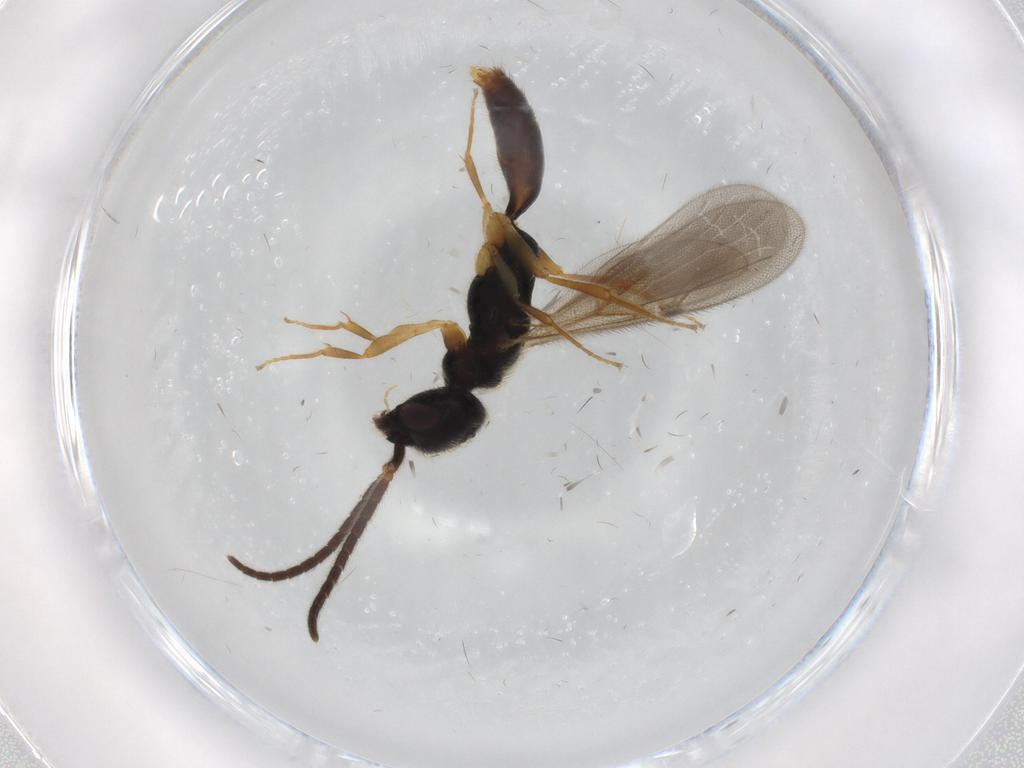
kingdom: Animalia
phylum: Arthropoda
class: Insecta
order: Hymenoptera
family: Bethylidae
